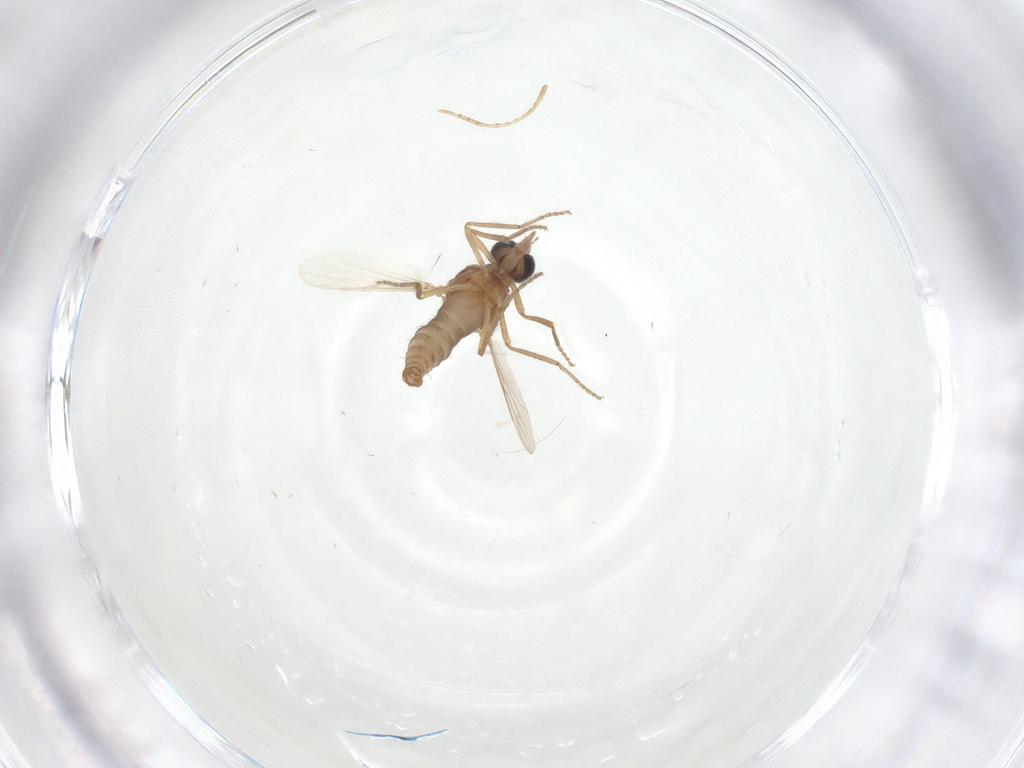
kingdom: Animalia
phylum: Arthropoda
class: Insecta
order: Diptera
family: Ceratopogonidae
